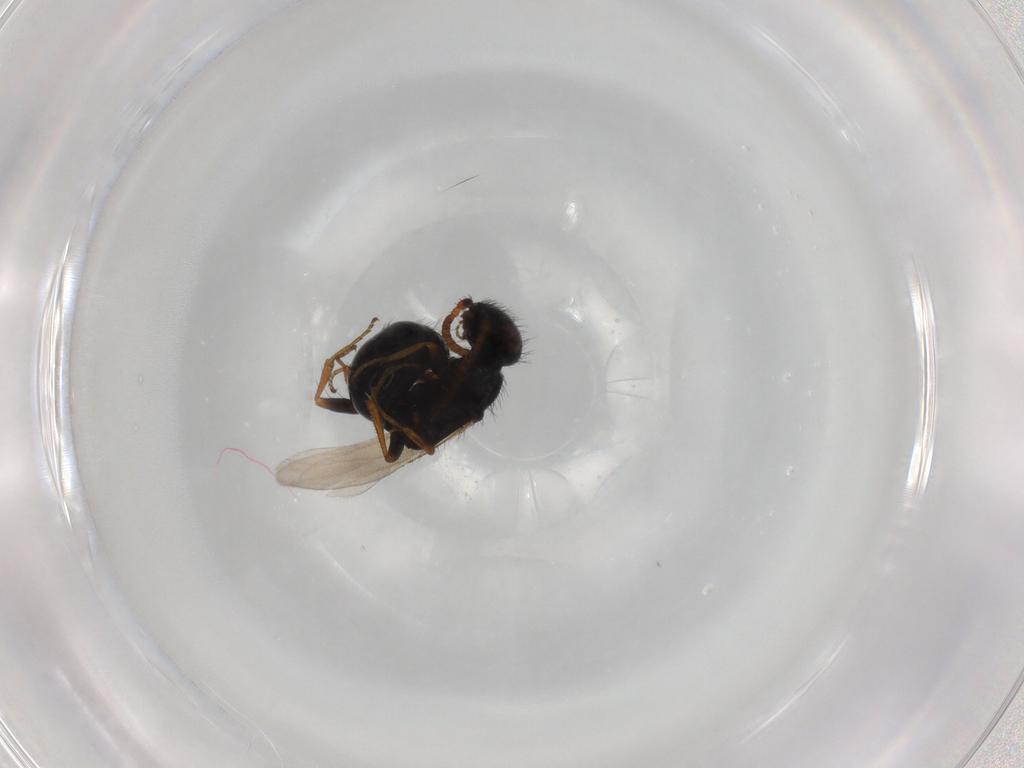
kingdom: Animalia
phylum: Arthropoda
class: Insecta
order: Hymenoptera
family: Bethylidae
